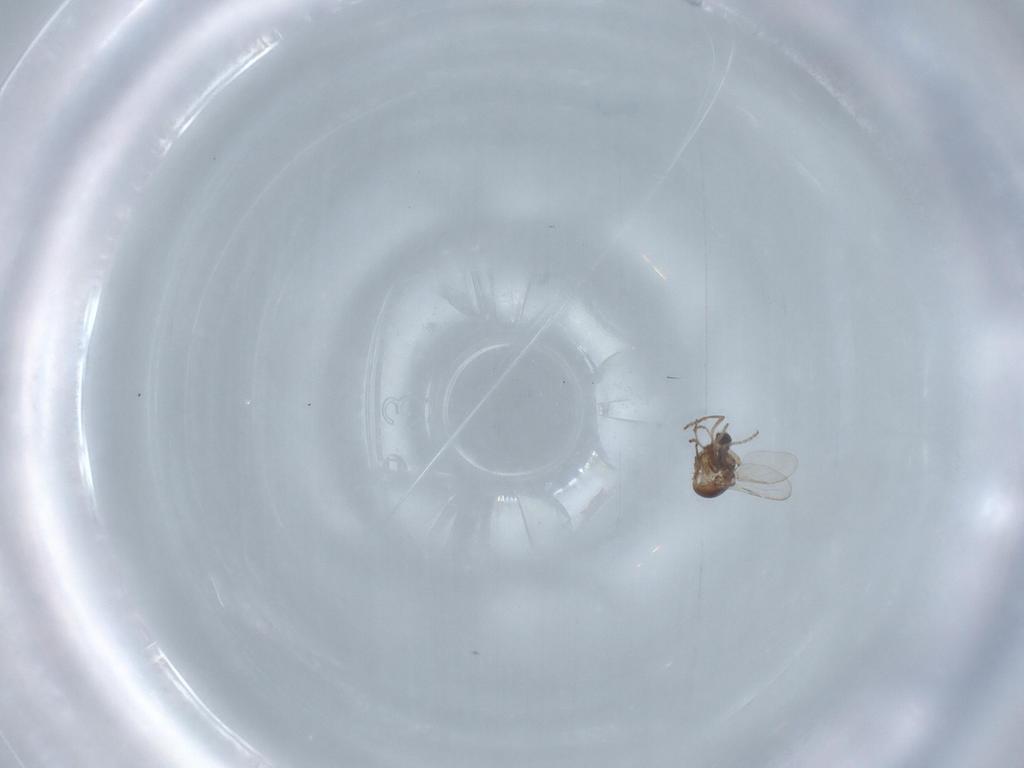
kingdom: Animalia
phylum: Arthropoda
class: Insecta
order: Diptera
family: Ceratopogonidae
